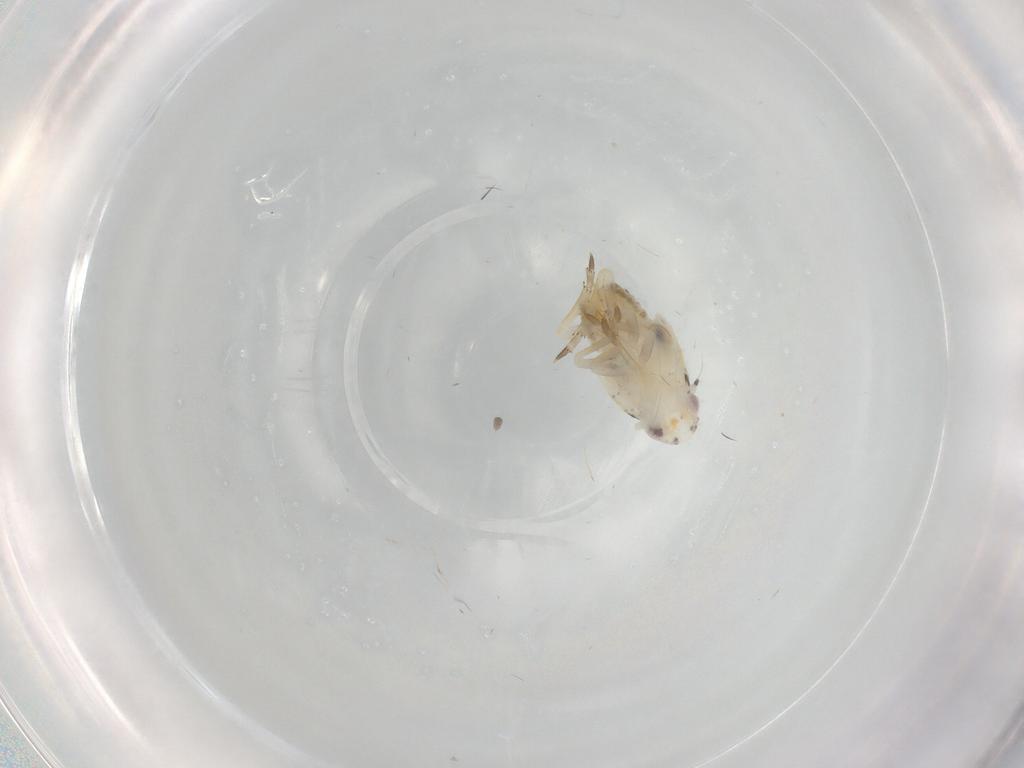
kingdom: Animalia
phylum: Arthropoda
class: Insecta
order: Hemiptera
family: Flatidae
